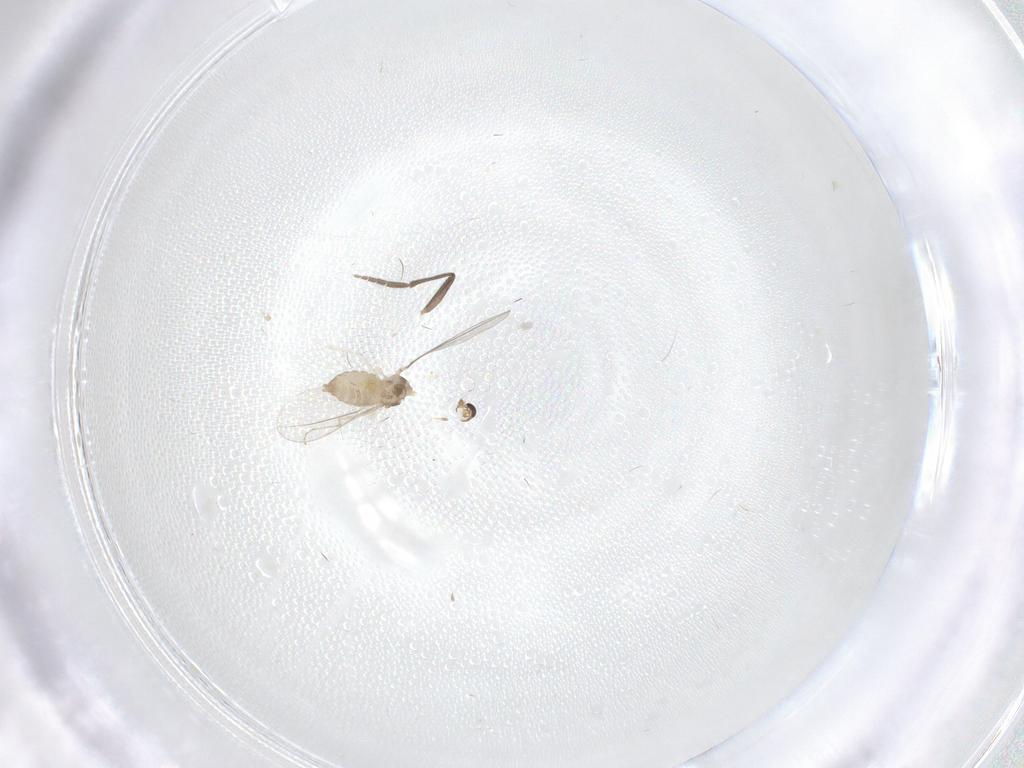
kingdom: Animalia
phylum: Arthropoda
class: Insecta
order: Diptera
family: Cecidomyiidae
